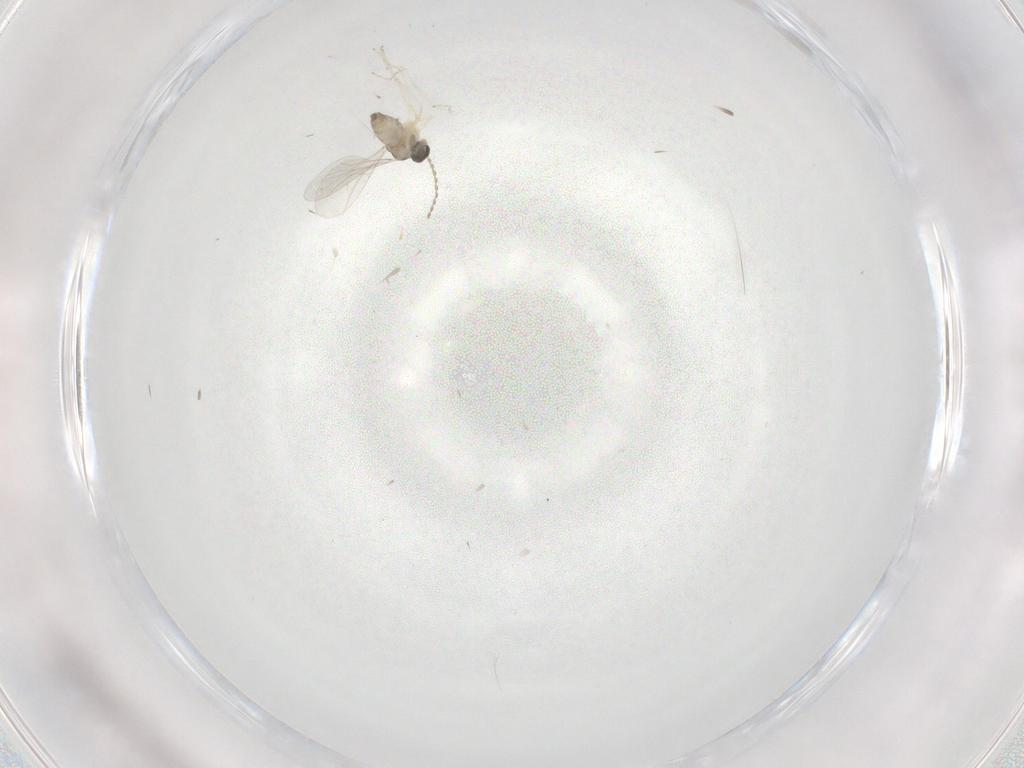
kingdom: Animalia
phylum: Arthropoda
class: Insecta
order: Diptera
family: Cecidomyiidae
